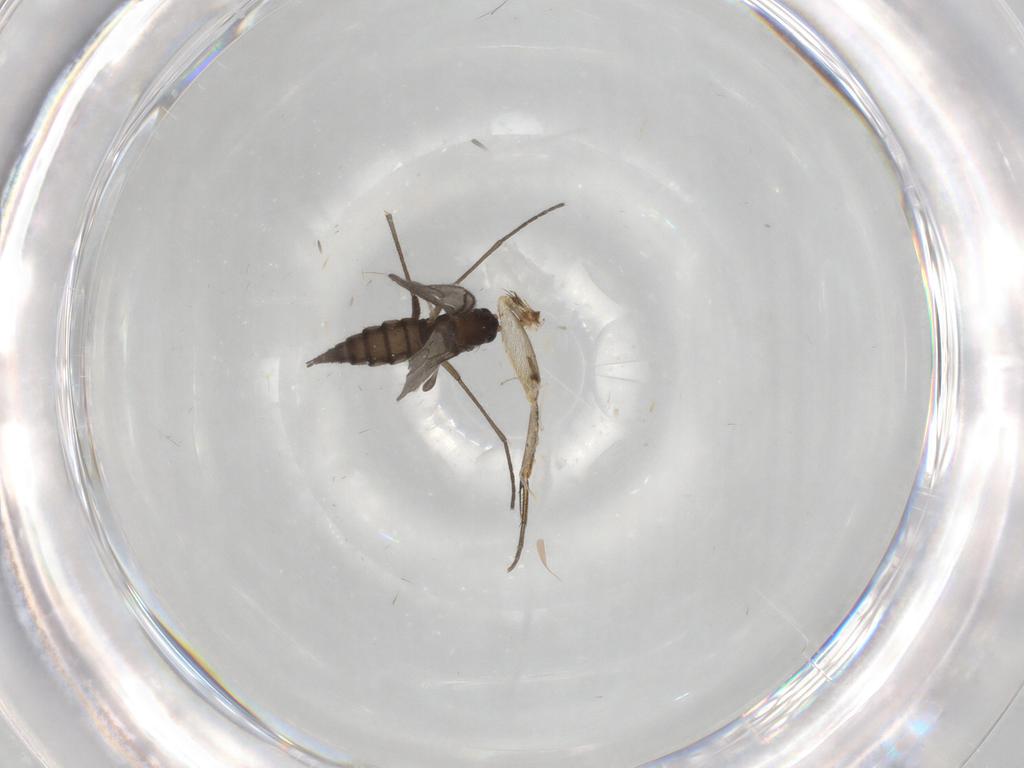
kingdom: Animalia
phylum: Arthropoda
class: Insecta
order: Diptera
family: Sciaridae
